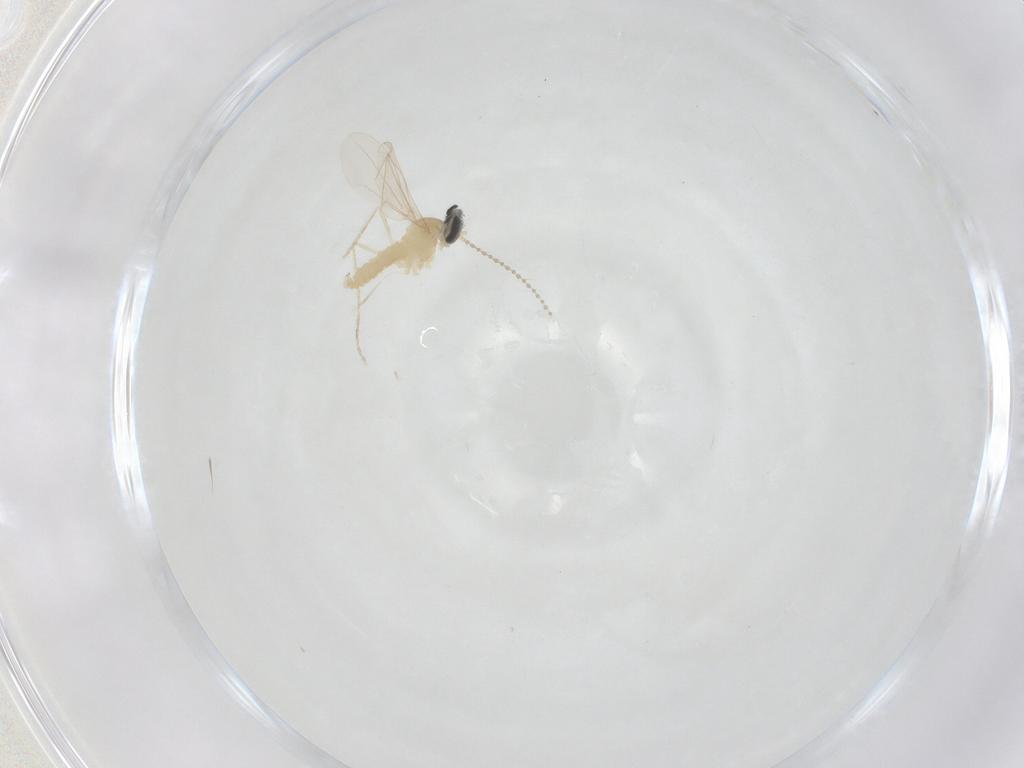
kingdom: Animalia
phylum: Arthropoda
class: Insecta
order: Diptera
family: Cecidomyiidae
